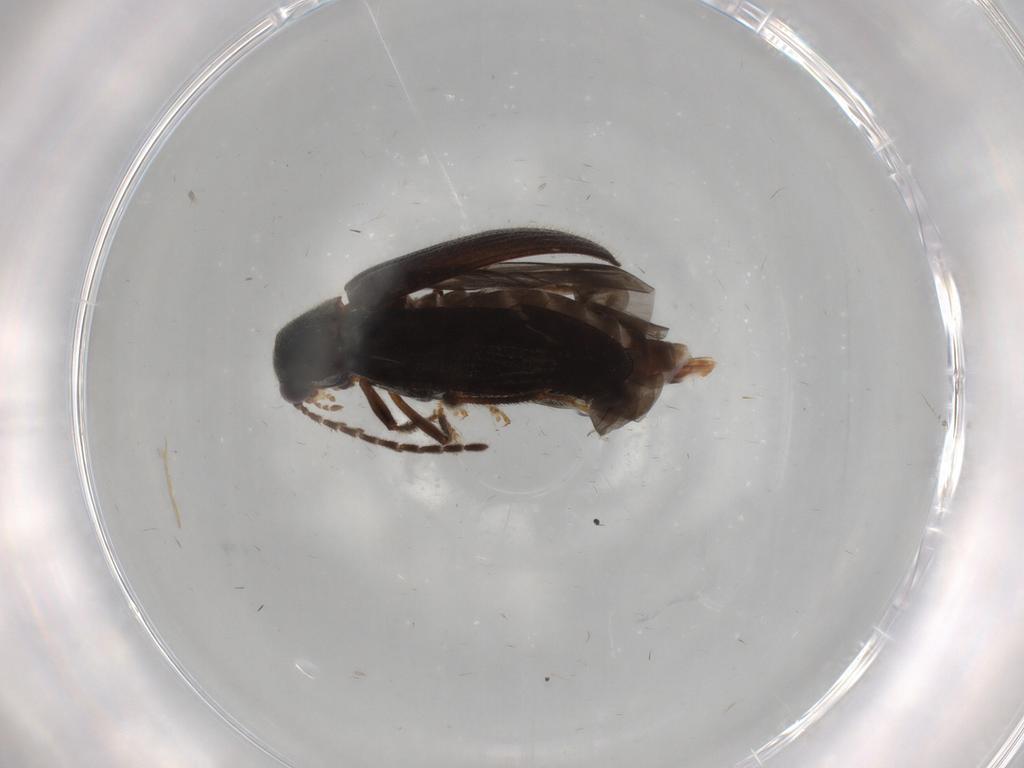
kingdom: Animalia
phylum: Arthropoda
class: Insecta
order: Coleoptera
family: Ptilodactylidae
